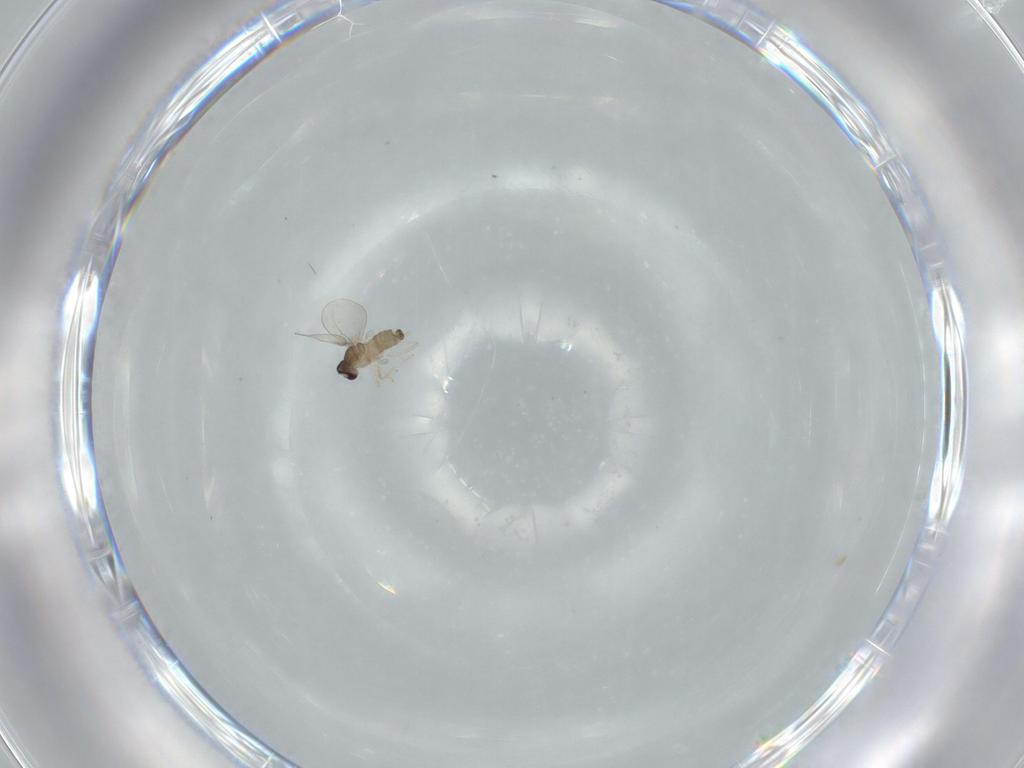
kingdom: Animalia
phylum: Arthropoda
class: Insecta
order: Diptera
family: Cecidomyiidae
